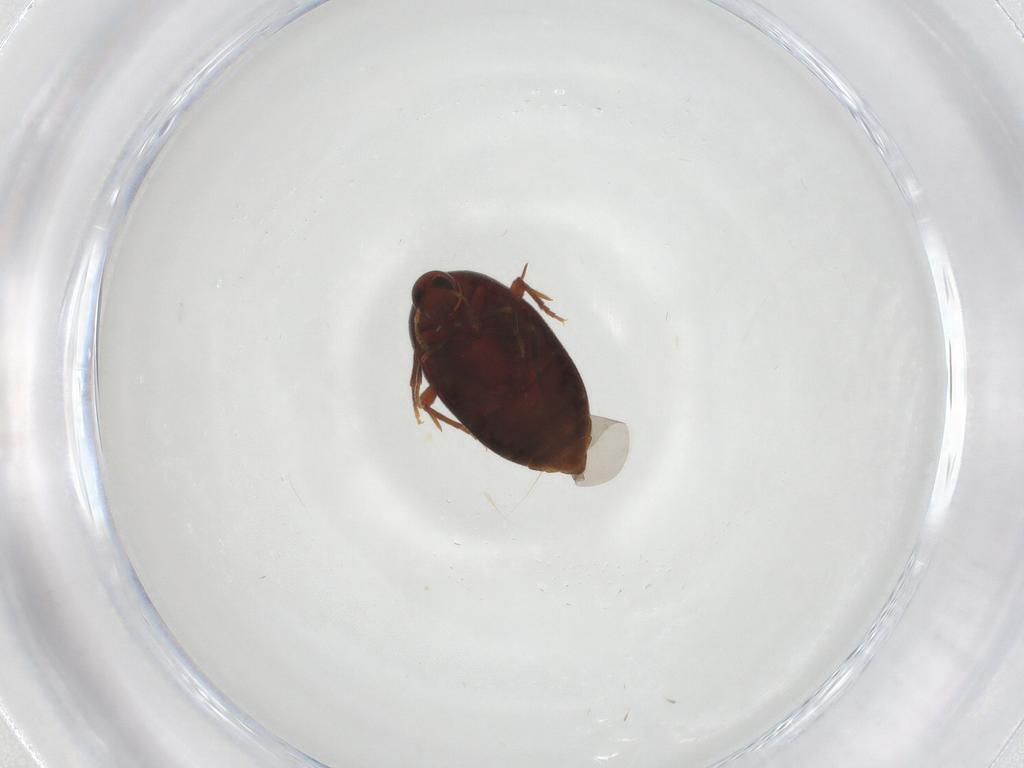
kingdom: Animalia
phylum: Arthropoda
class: Insecta
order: Coleoptera
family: Melandryidae
